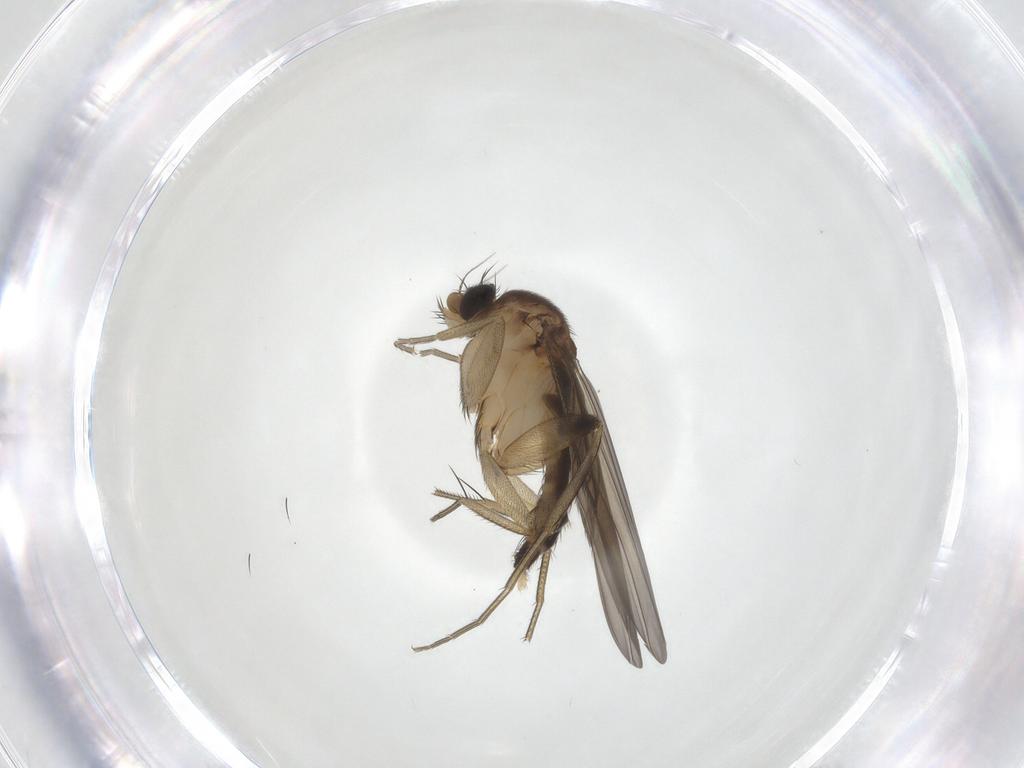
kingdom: Animalia
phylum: Arthropoda
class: Insecta
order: Diptera
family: Phoridae
